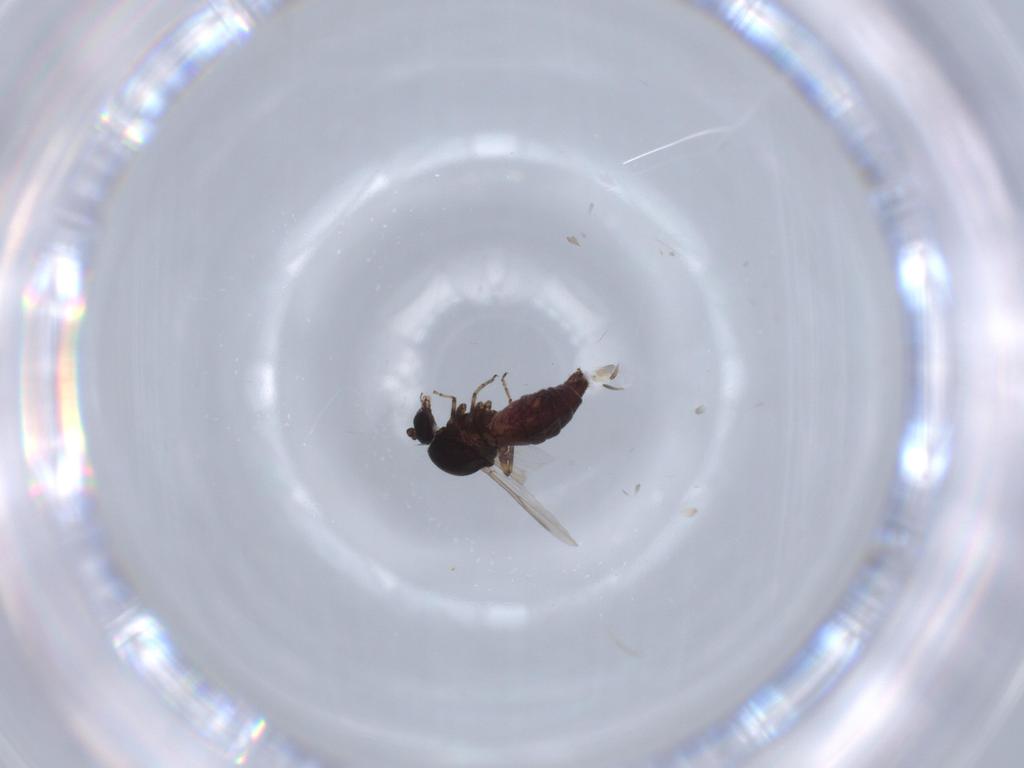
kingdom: Animalia
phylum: Arthropoda
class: Insecta
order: Diptera
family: Ceratopogonidae
